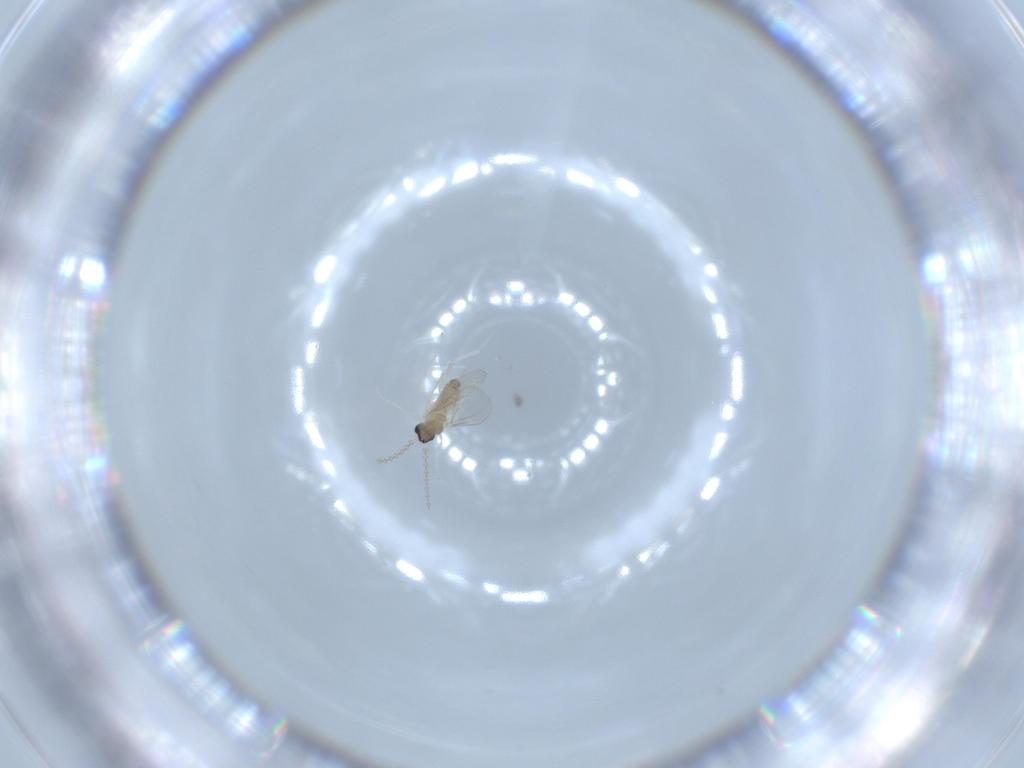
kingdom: Animalia
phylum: Arthropoda
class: Insecta
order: Diptera
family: Cecidomyiidae
